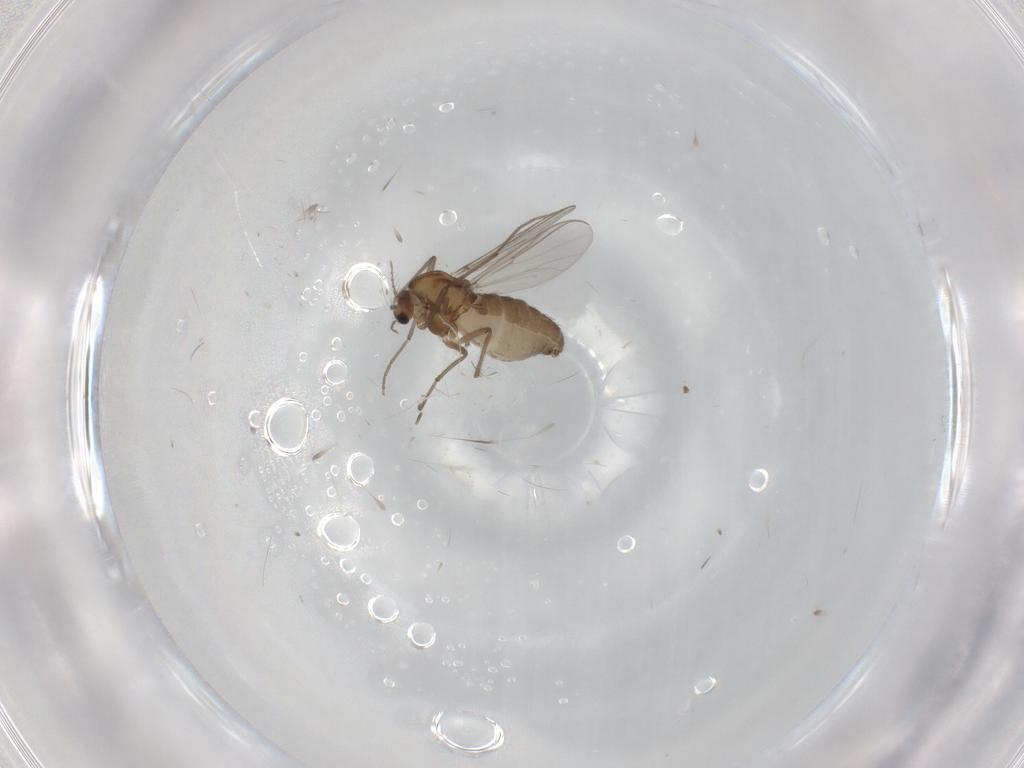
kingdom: Animalia
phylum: Arthropoda
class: Insecta
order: Diptera
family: Chironomidae
